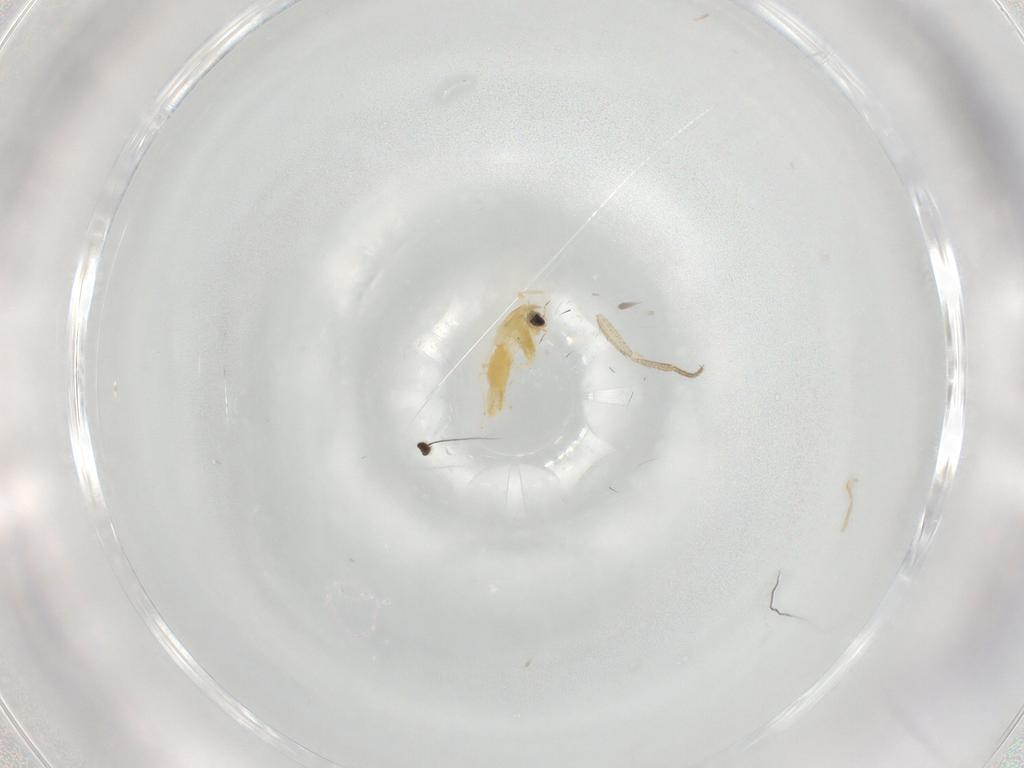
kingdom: Animalia
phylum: Arthropoda
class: Insecta
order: Diptera
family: Chironomidae
